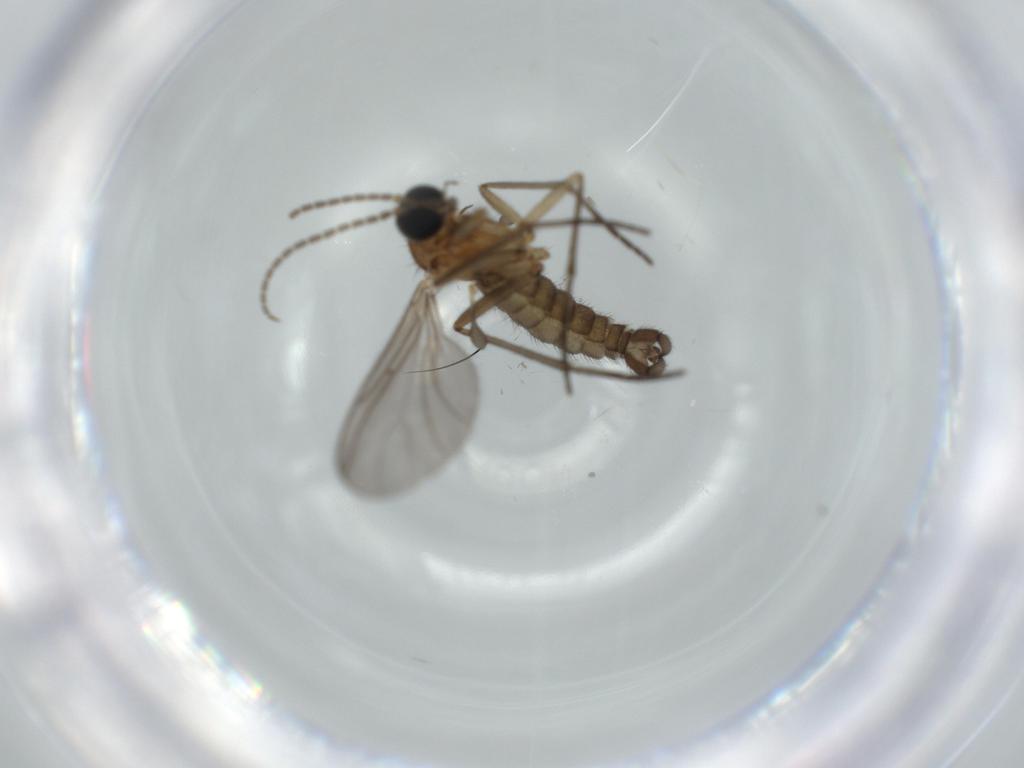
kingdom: Animalia
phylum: Arthropoda
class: Insecta
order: Diptera
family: Sciaridae
